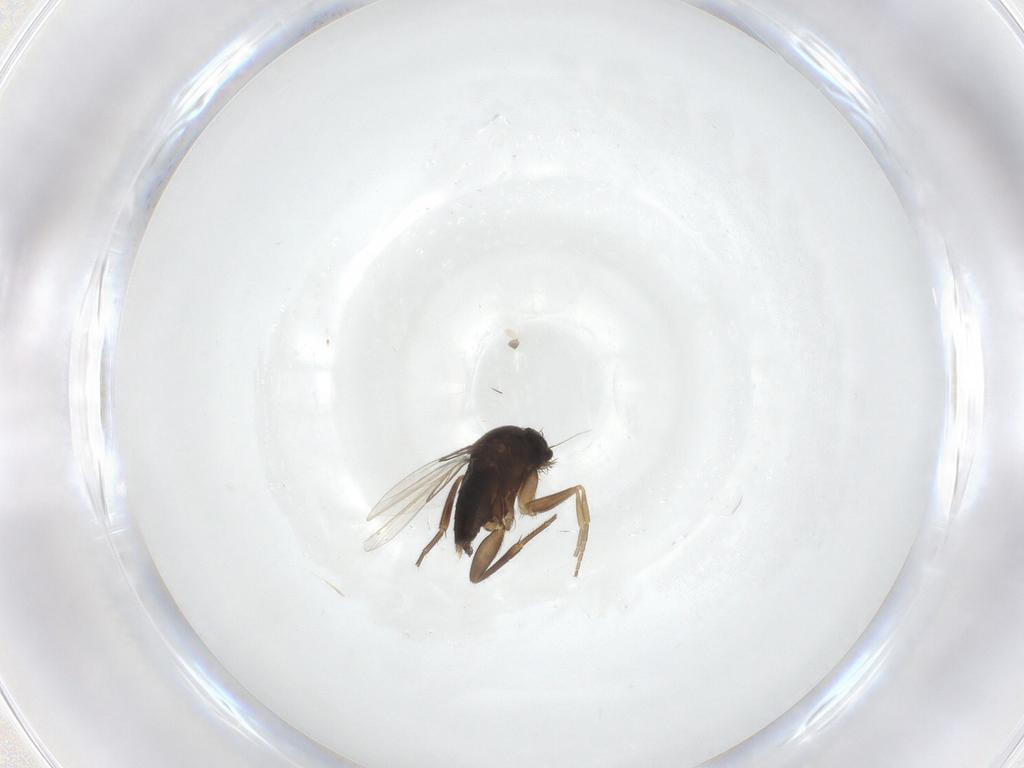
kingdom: Animalia
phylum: Arthropoda
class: Insecta
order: Diptera
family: Phoridae
